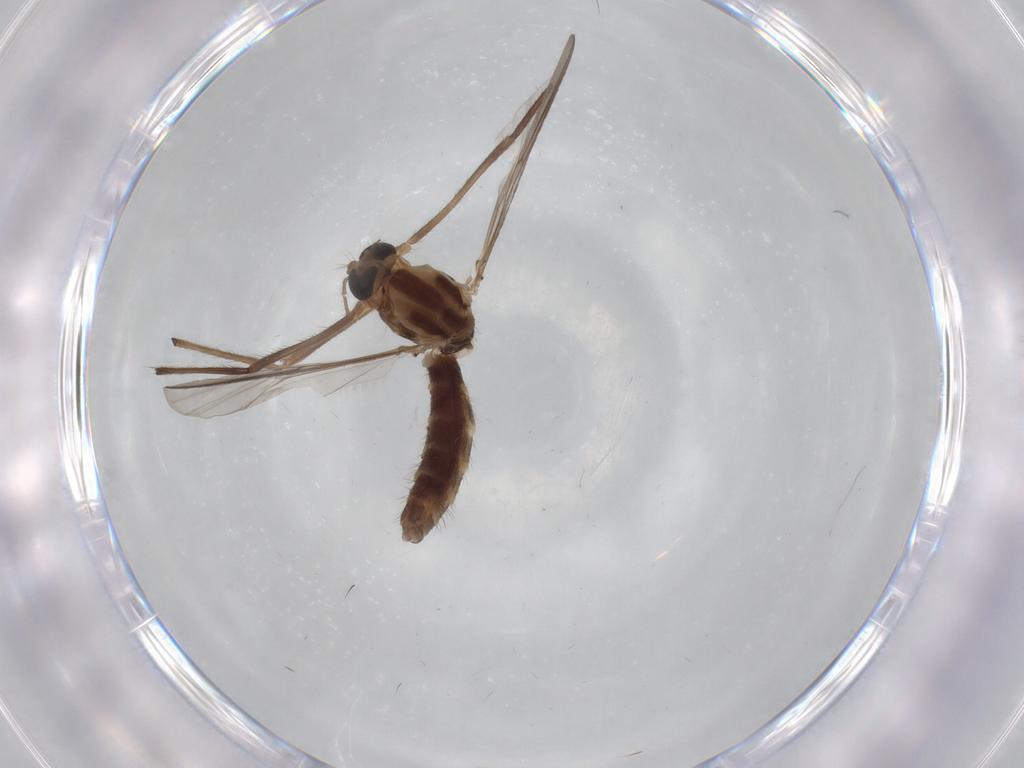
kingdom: Animalia
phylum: Arthropoda
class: Insecta
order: Diptera
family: Chironomidae
